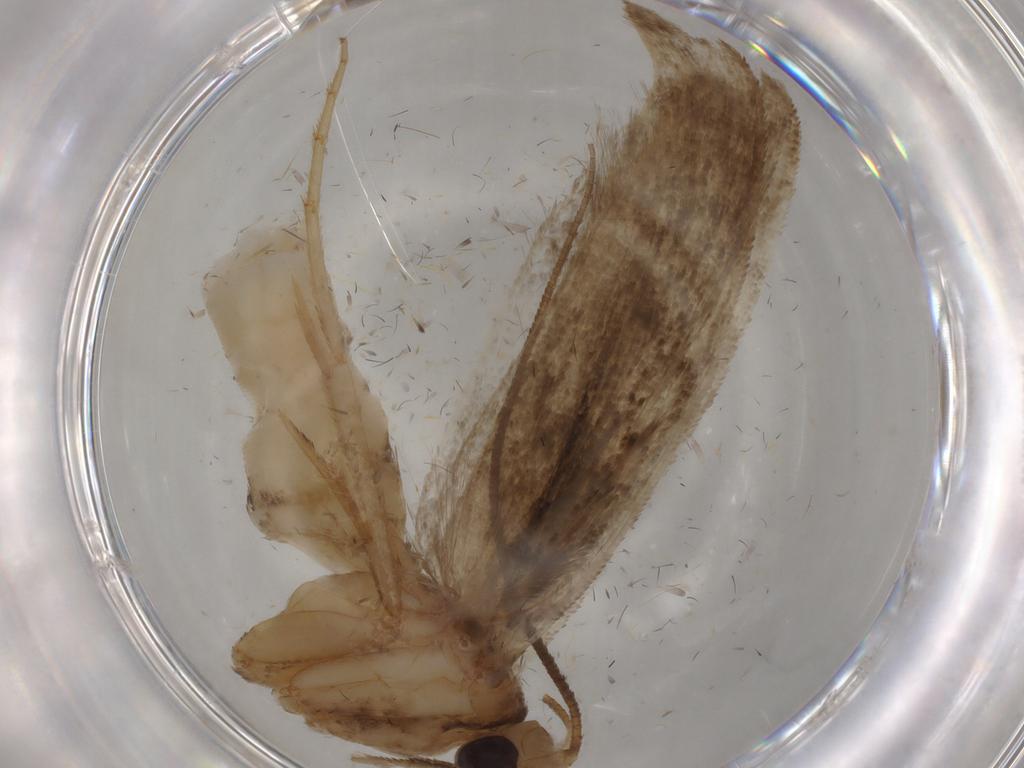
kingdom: Animalia
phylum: Arthropoda
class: Insecta
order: Lepidoptera
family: Yponomeutidae
